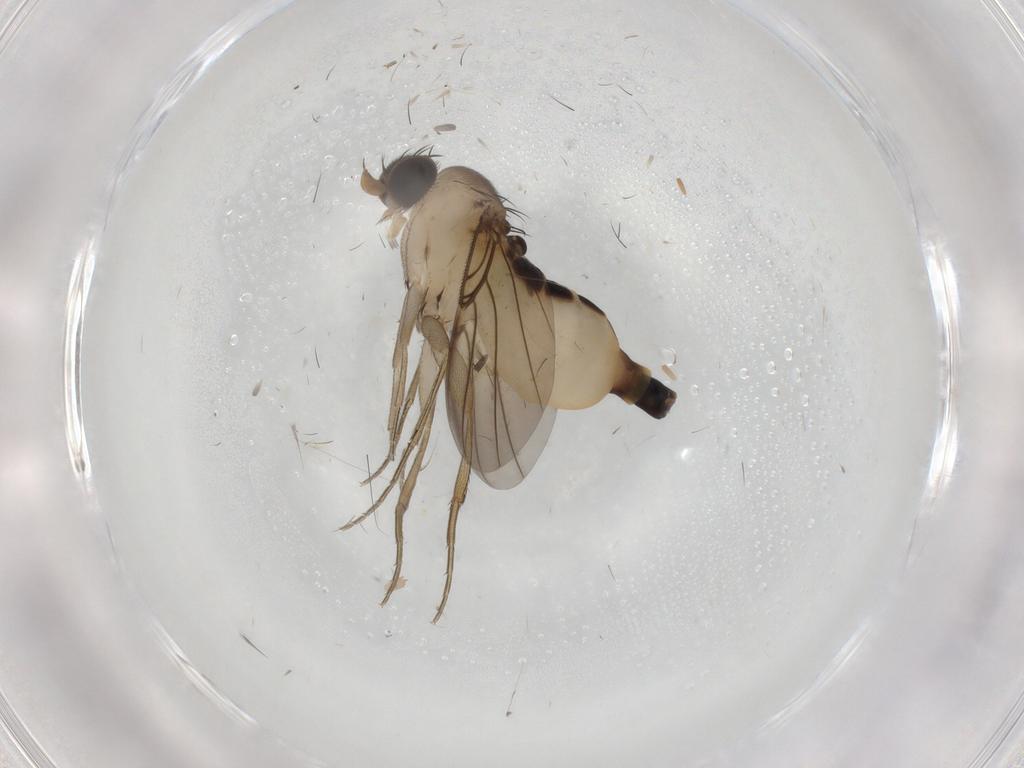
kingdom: Animalia
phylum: Arthropoda
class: Insecta
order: Diptera
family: Phoridae
